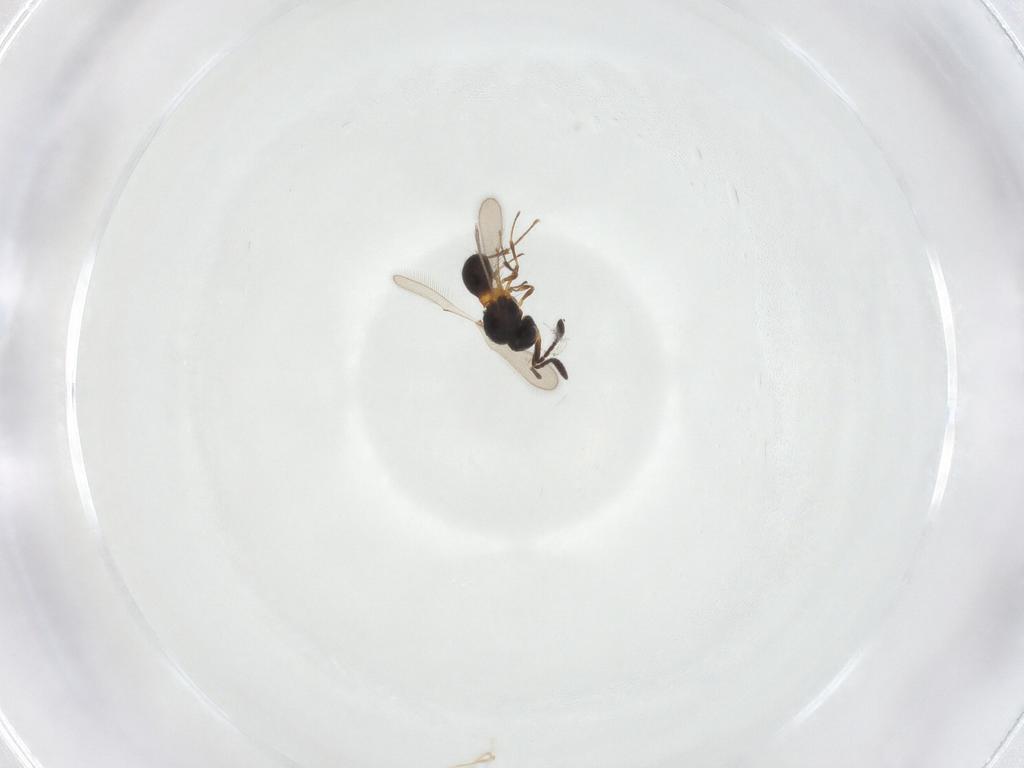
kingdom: Animalia
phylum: Arthropoda
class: Insecta
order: Hymenoptera
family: Scelionidae
